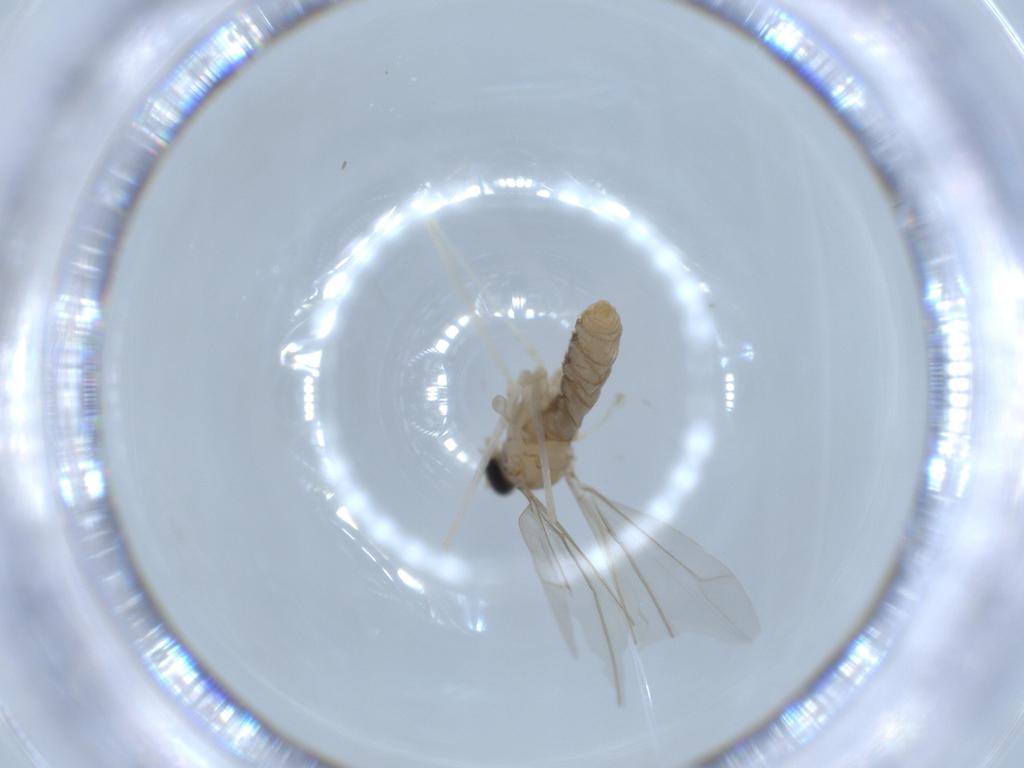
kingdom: Animalia
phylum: Arthropoda
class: Insecta
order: Diptera
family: Cecidomyiidae
